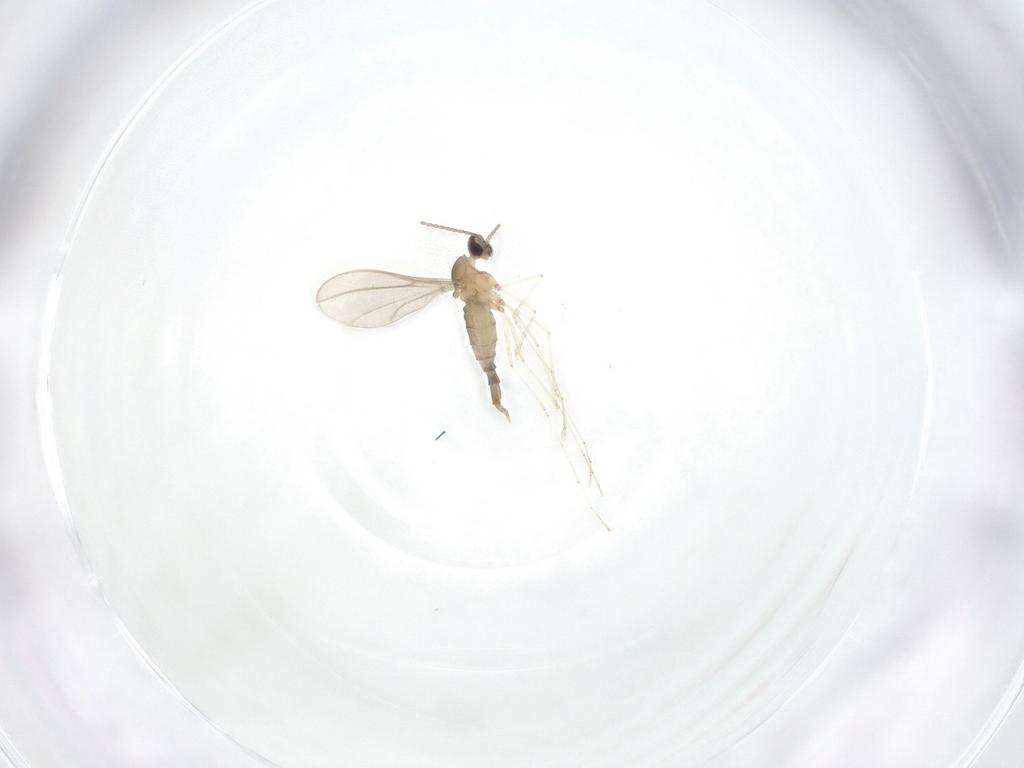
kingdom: Animalia
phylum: Arthropoda
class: Insecta
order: Diptera
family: Cecidomyiidae
